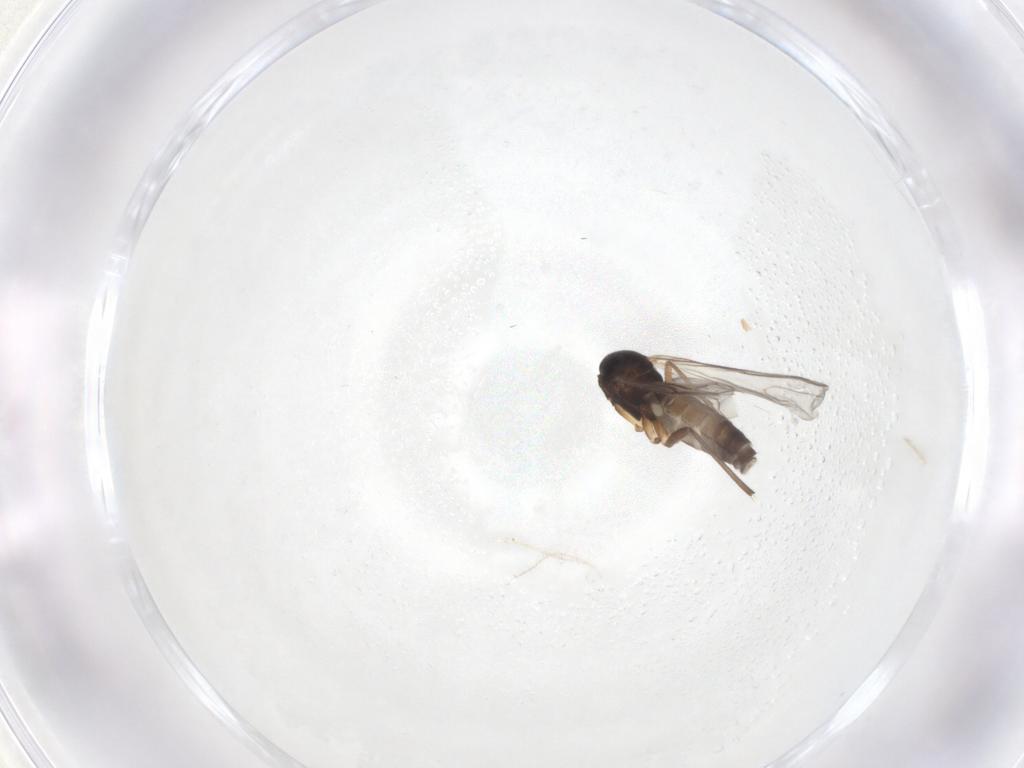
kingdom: Animalia
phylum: Arthropoda
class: Insecta
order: Diptera
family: Sciaridae
